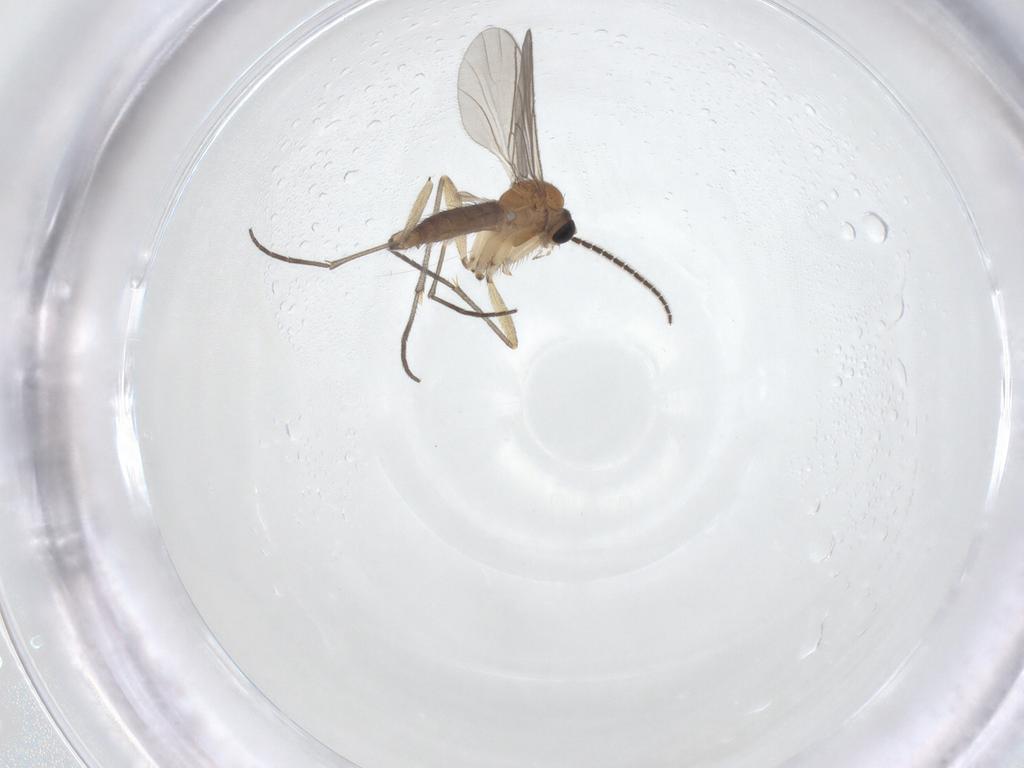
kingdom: Animalia
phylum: Arthropoda
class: Insecta
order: Diptera
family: Sciaridae
